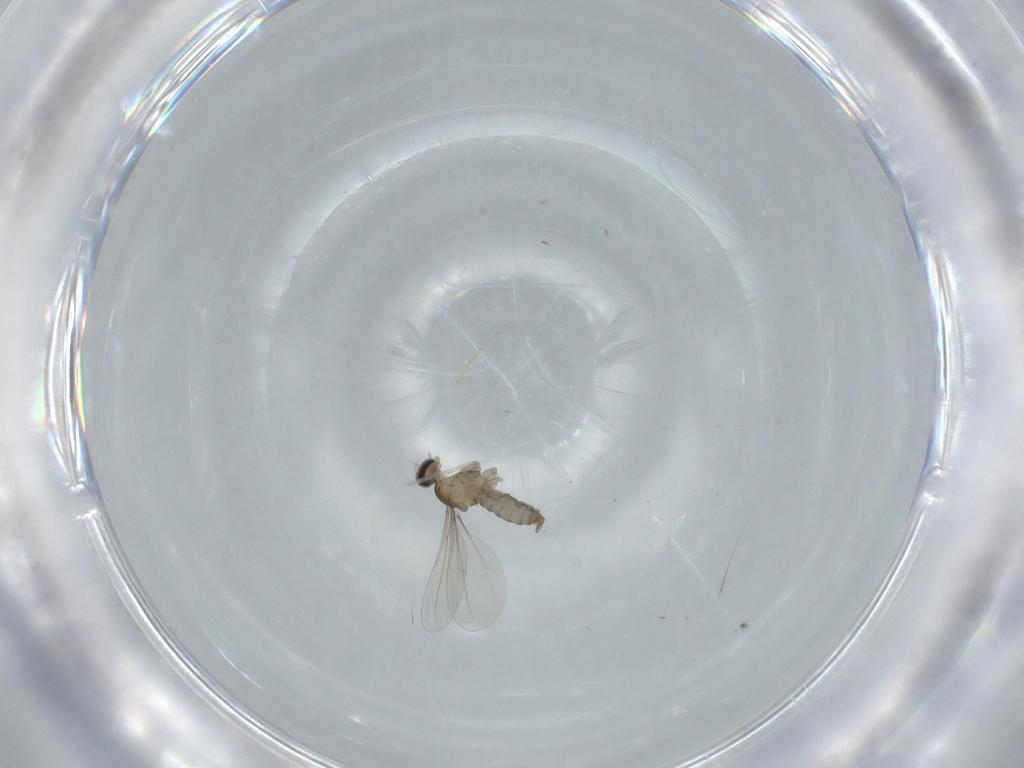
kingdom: Animalia
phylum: Arthropoda
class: Insecta
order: Diptera
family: Cecidomyiidae
